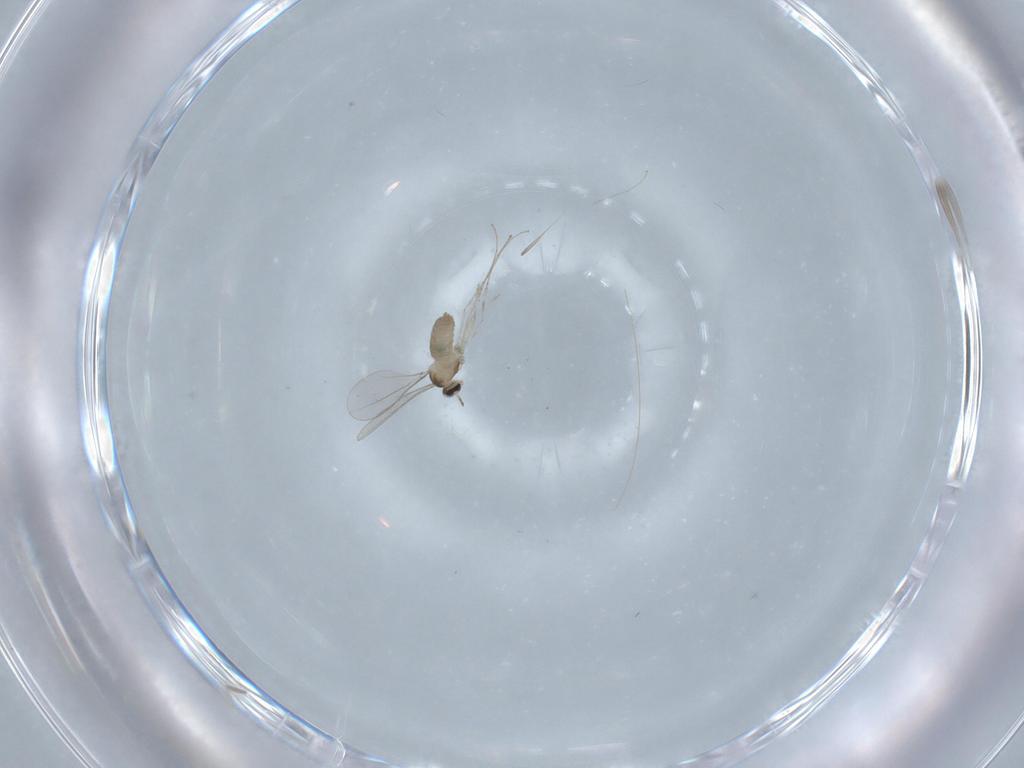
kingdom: Animalia
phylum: Arthropoda
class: Insecta
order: Diptera
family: Cecidomyiidae
